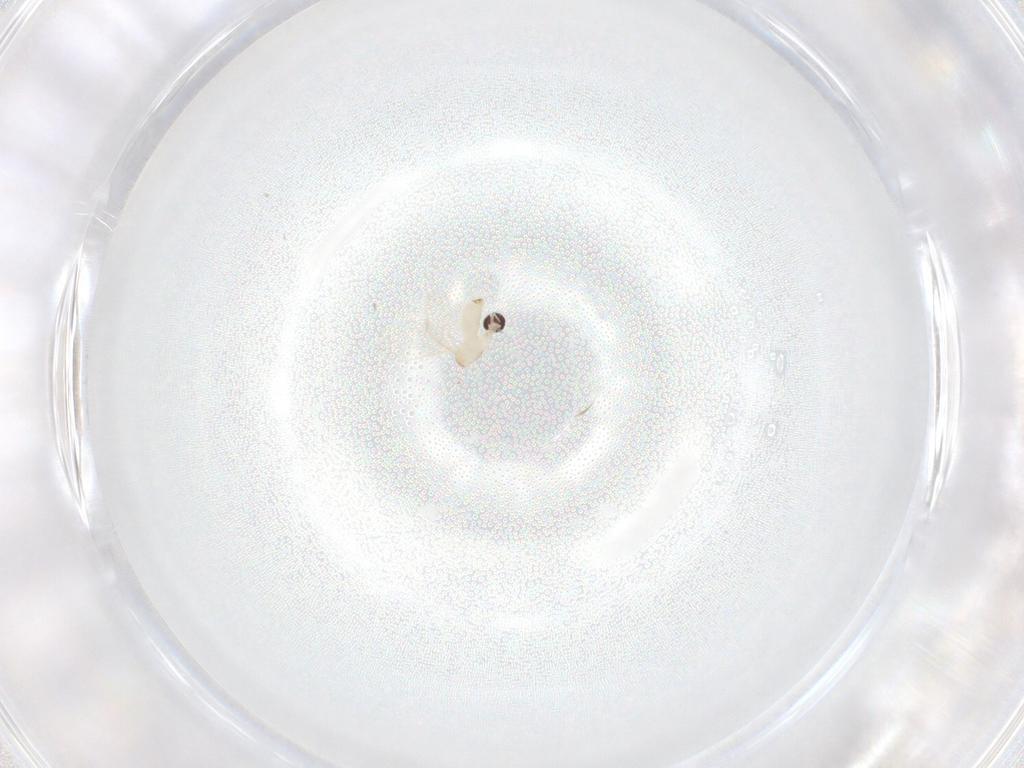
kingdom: Animalia
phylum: Arthropoda
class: Insecta
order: Diptera
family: Cecidomyiidae
